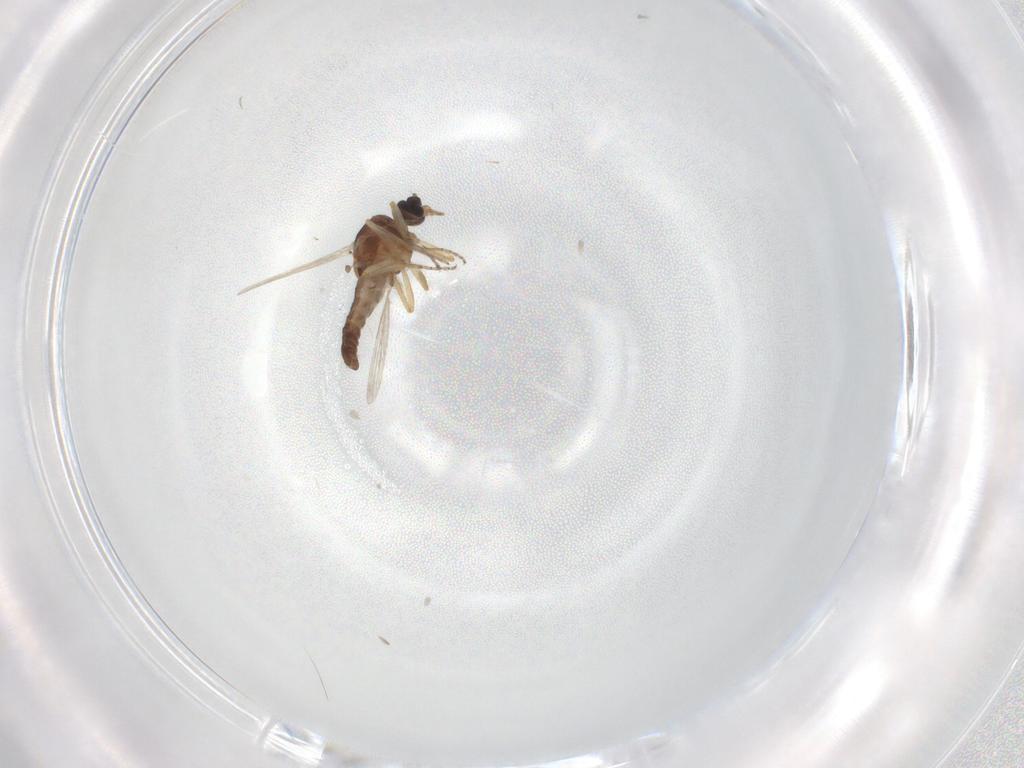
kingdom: Animalia
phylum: Arthropoda
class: Insecta
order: Diptera
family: Ceratopogonidae
